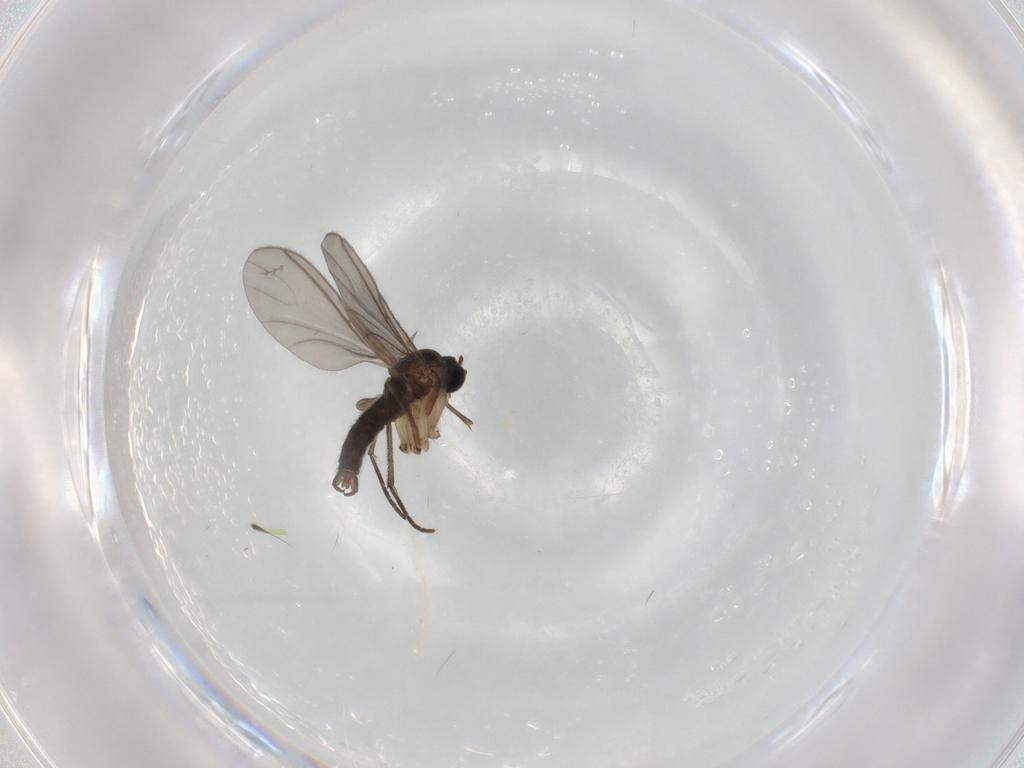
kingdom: Animalia
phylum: Arthropoda
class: Insecta
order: Diptera
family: Sciaridae
